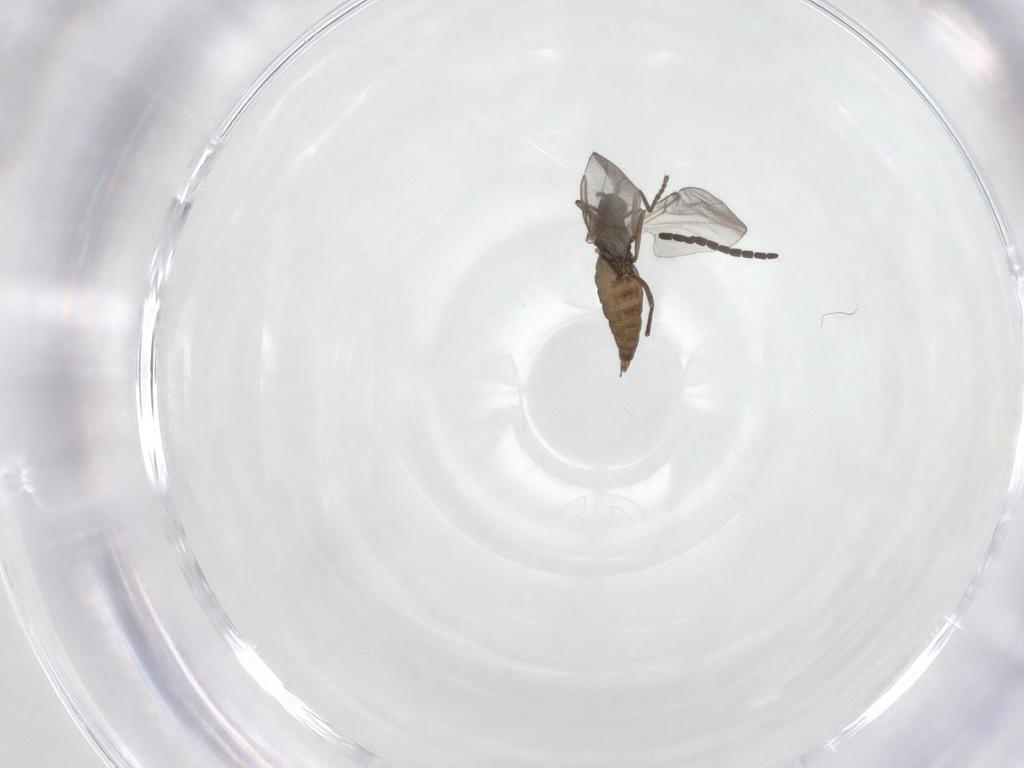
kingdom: Animalia
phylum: Arthropoda
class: Insecta
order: Diptera
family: Cecidomyiidae
